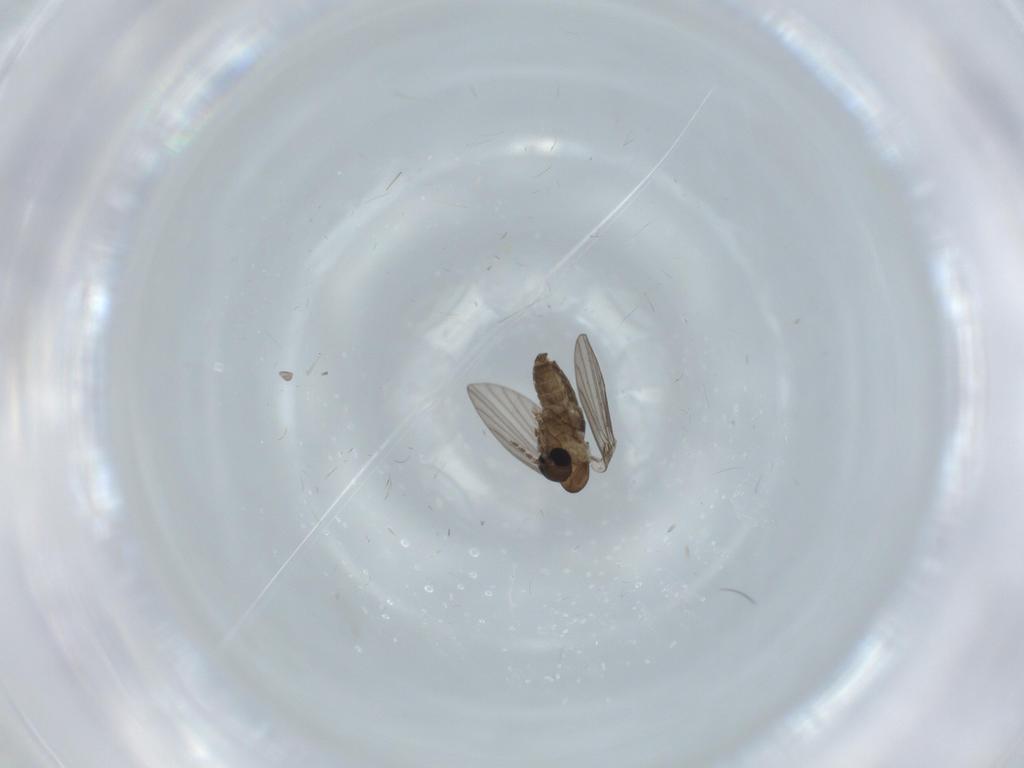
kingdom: Animalia
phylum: Arthropoda
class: Insecta
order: Diptera
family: Psychodidae
